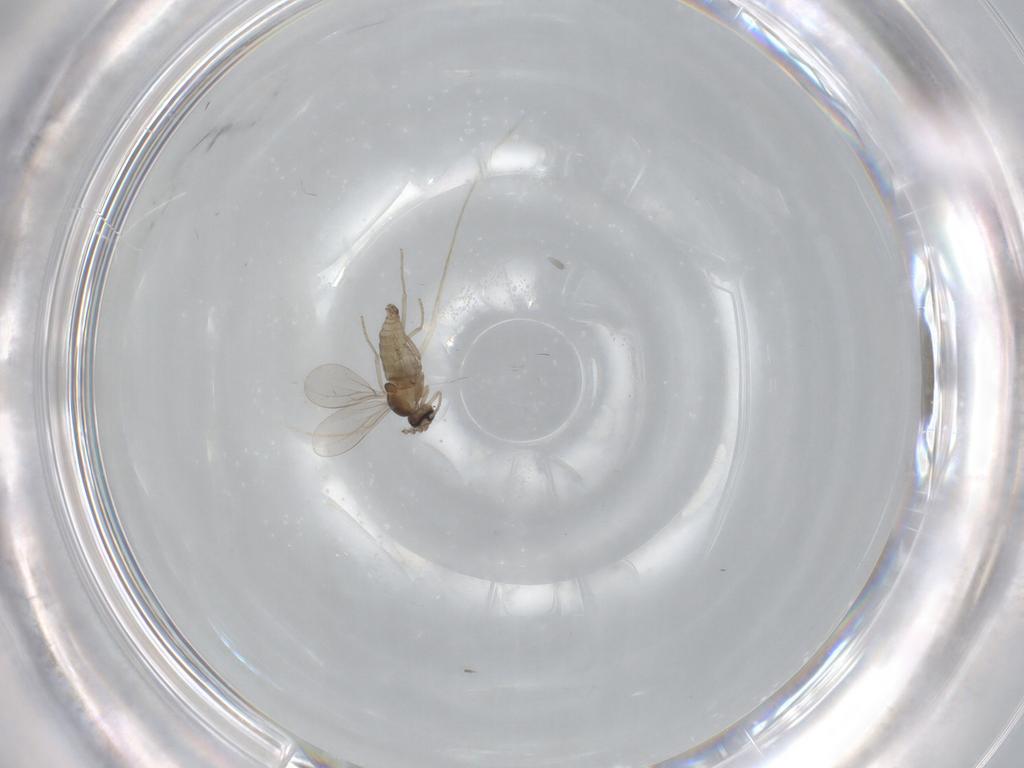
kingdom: Animalia
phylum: Arthropoda
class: Insecta
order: Diptera
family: Cecidomyiidae
